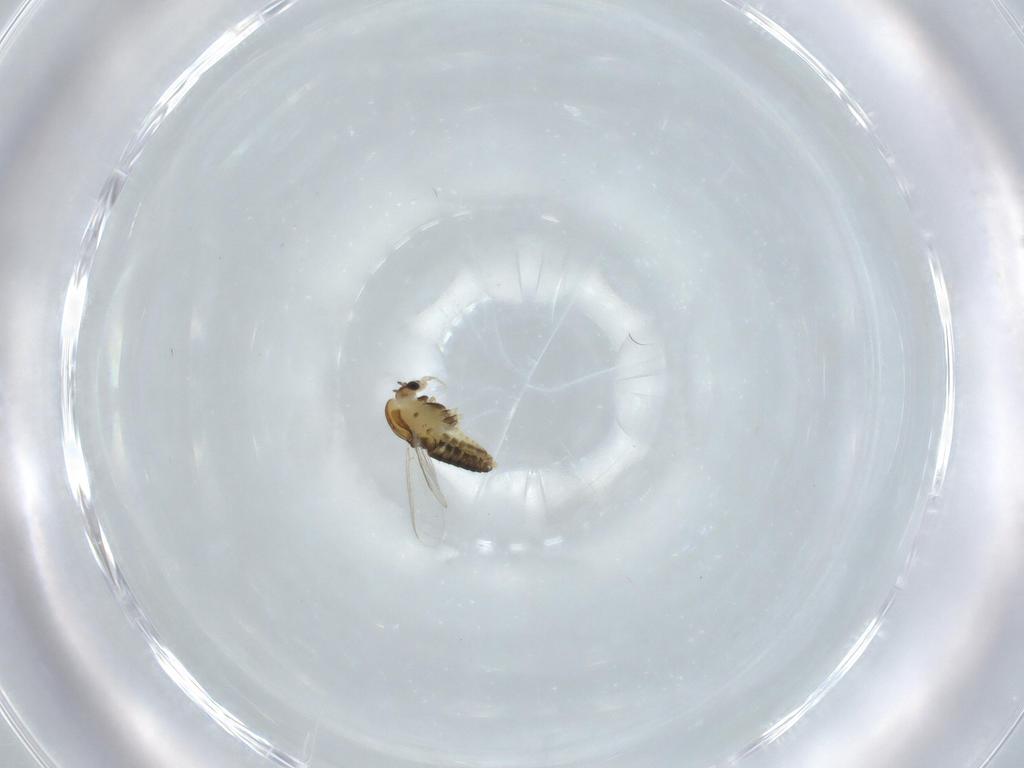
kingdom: Animalia
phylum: Arthropoda
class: Insecta
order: Diptera
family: Chironomidae
